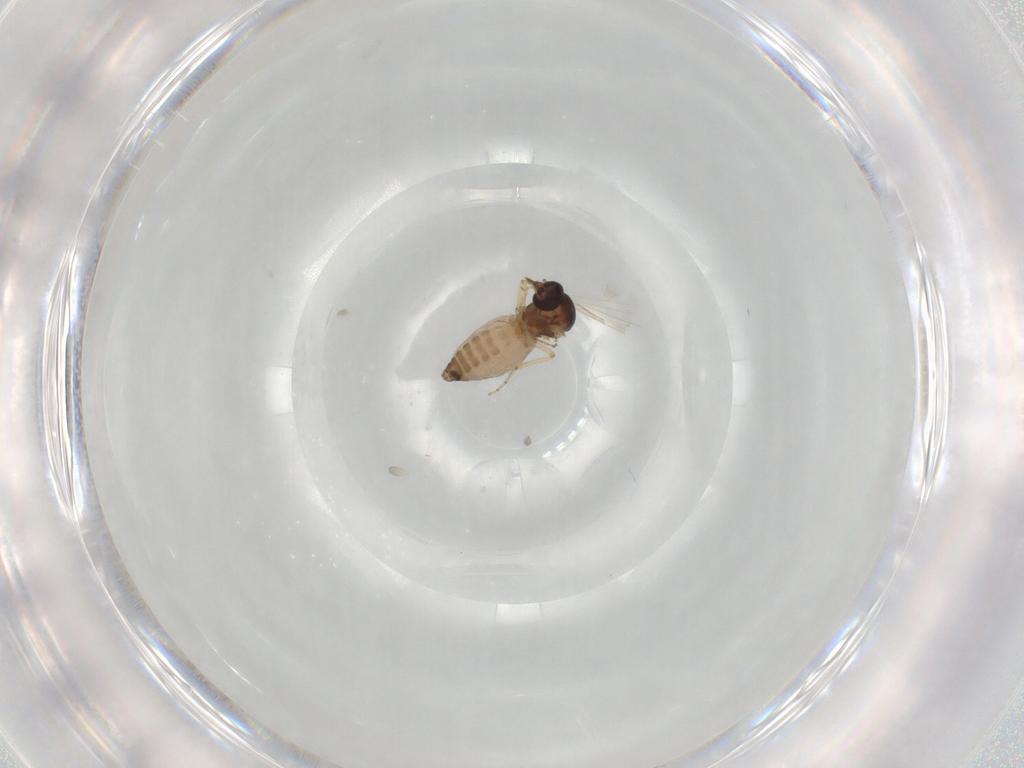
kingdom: Animalia
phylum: Arthropoda
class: Insecta
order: Diptera
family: Ceratopogonidae
